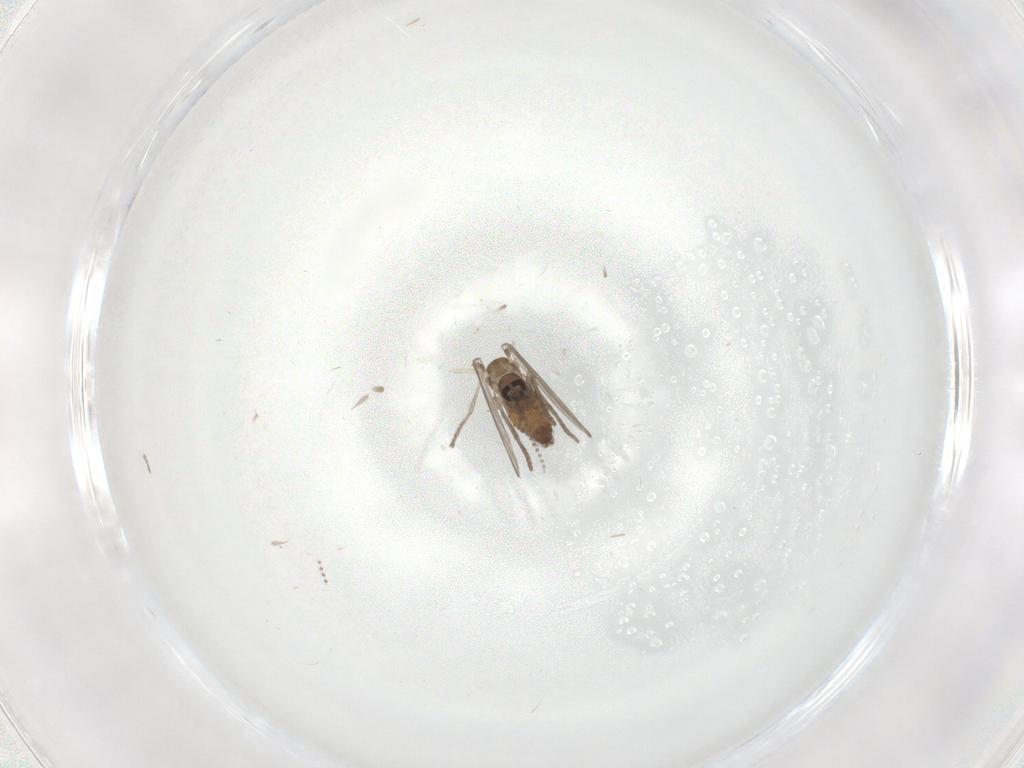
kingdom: Animalia
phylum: Arthropoda
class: Insecta
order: Diptera
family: Psychodidae
